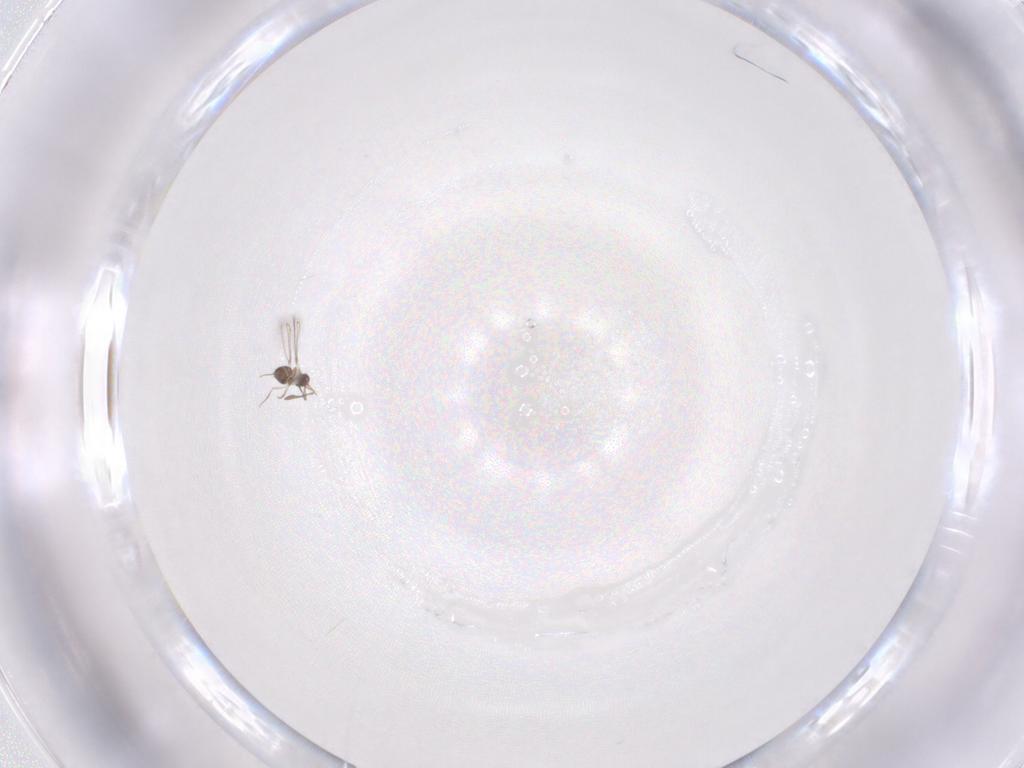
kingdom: Animalia
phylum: Arthropoda
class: Insecta
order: Hymenoptera
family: Mymaridae
